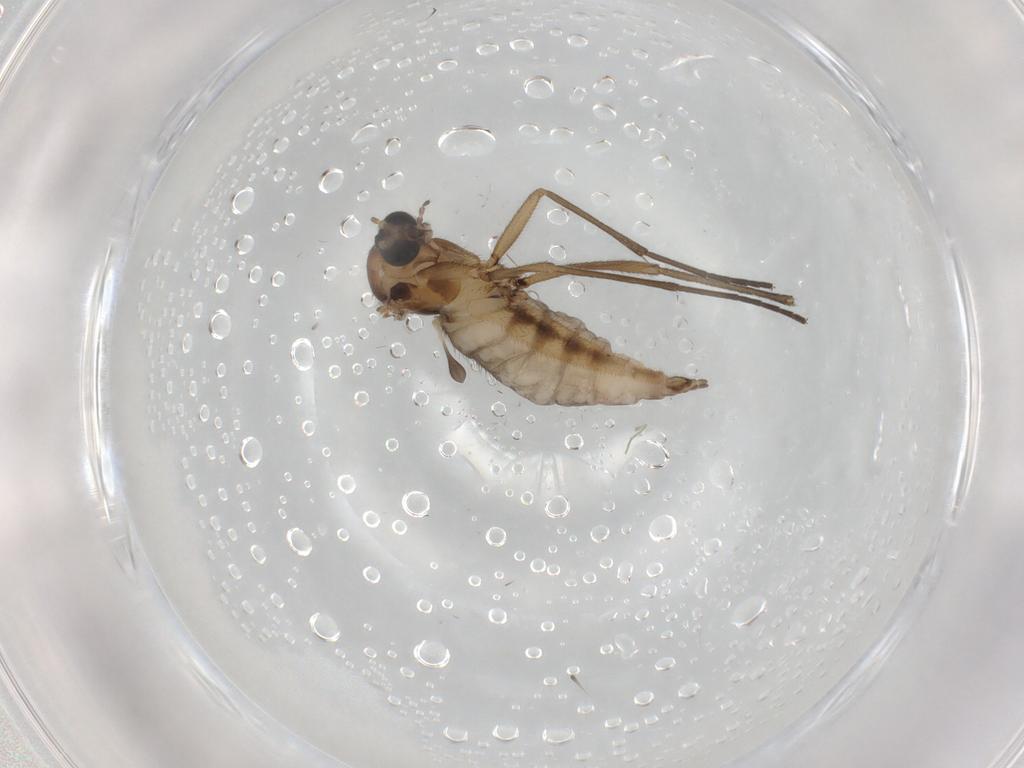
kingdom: Animalia
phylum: Arthropoda
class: Insecta
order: Diptera
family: Sciaridae
